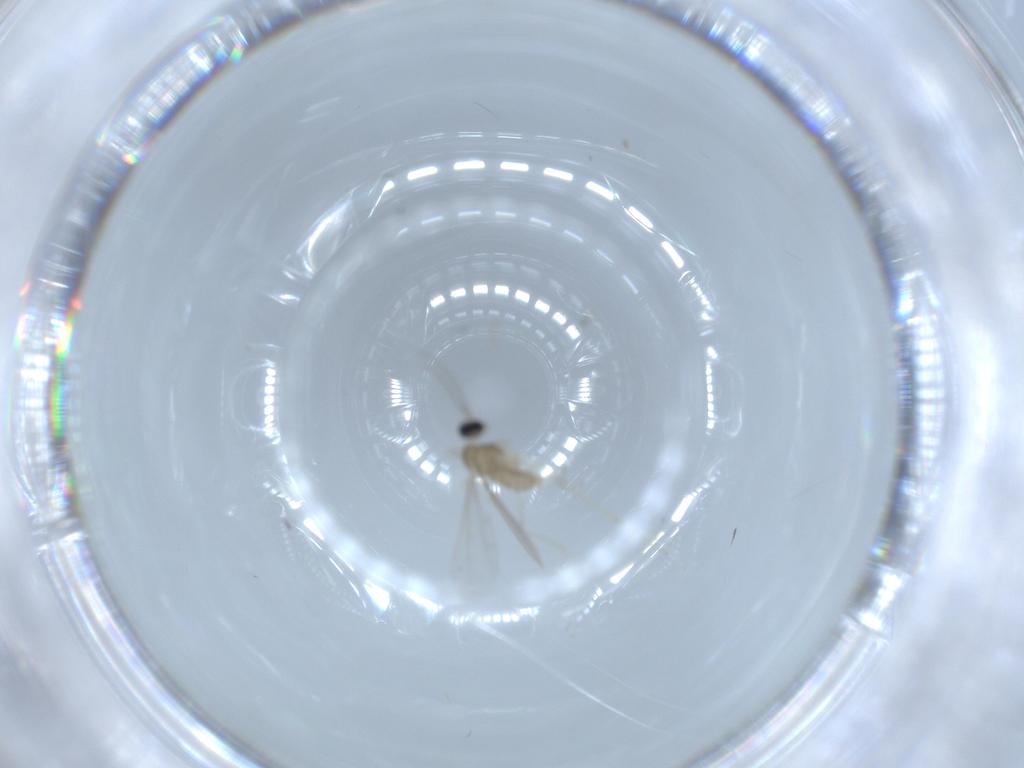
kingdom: Animalia
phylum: Arthropoda
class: Insecta
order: Diptera
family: Cecidomyiidae
